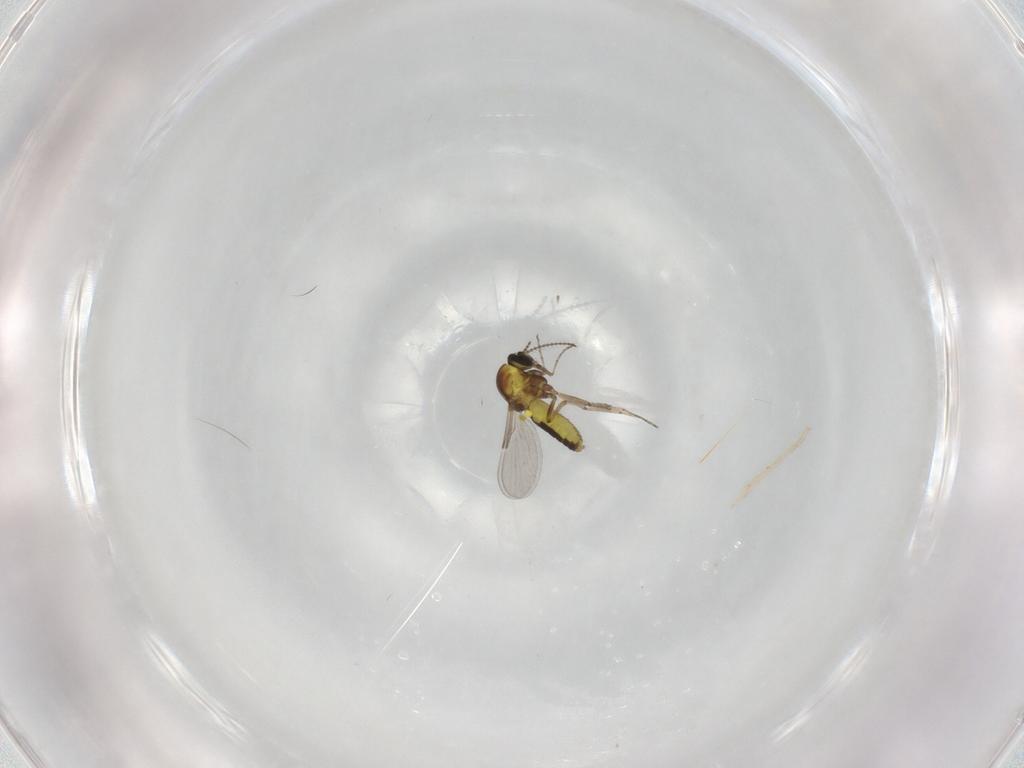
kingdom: Animalia
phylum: Arthropoda
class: Insecta
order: Diptera
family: Ceratopogonidae
